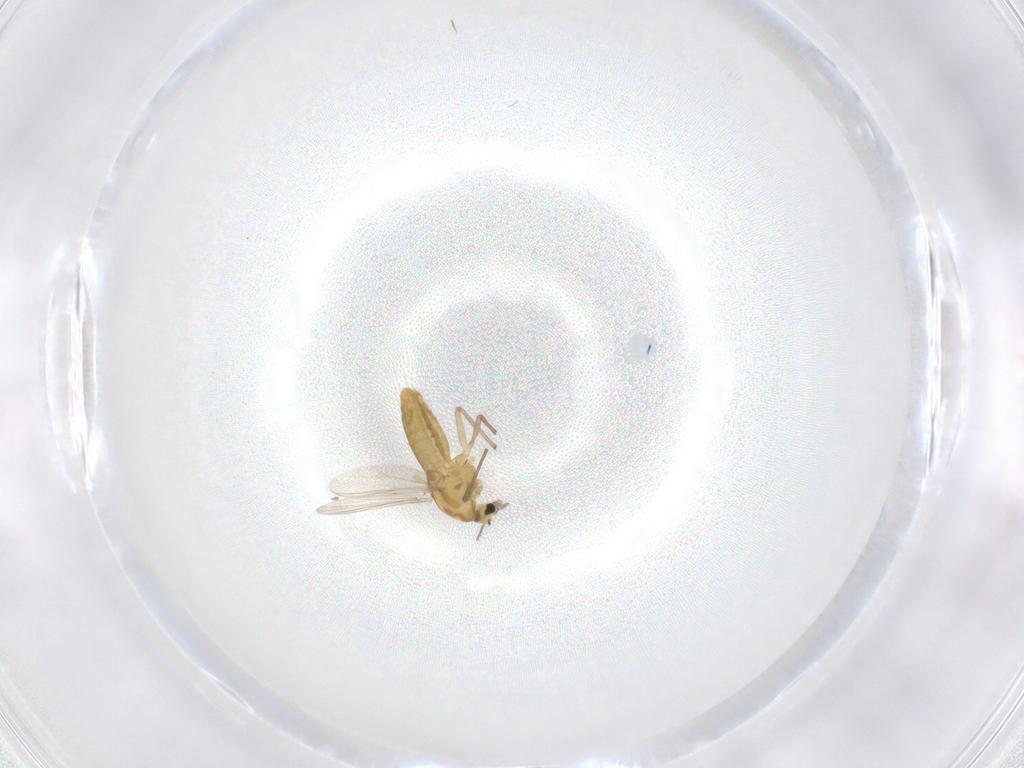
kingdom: Animalia
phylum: Arthropoda
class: Insecta
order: Diptera
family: Chironomidae
